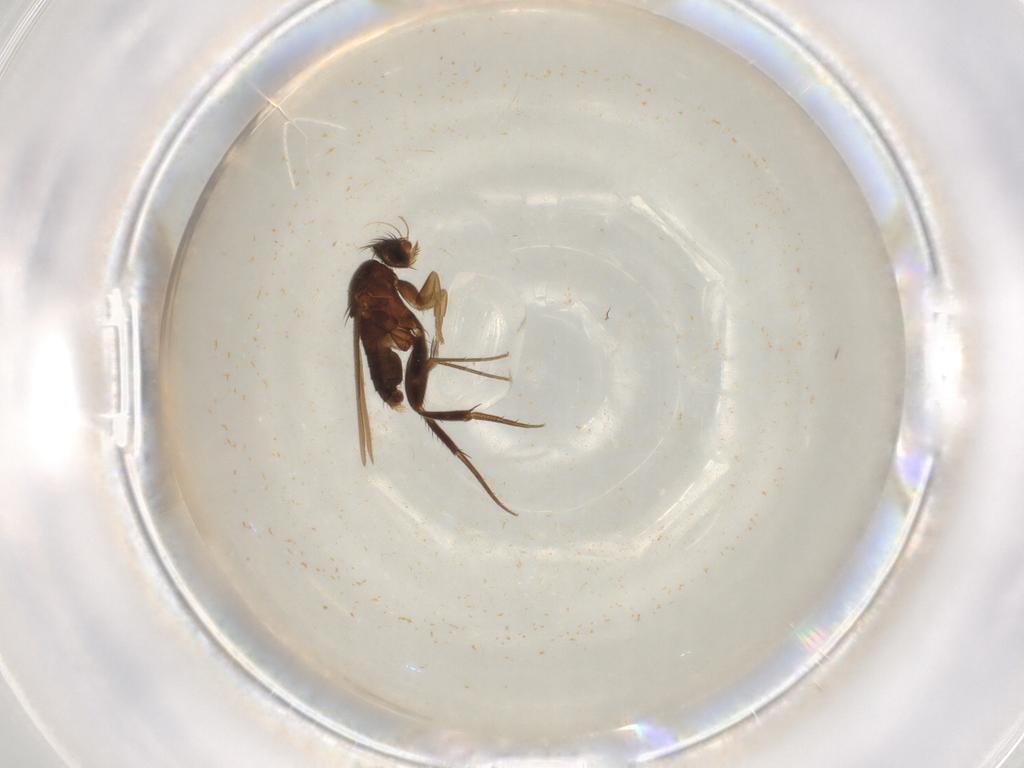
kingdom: Animalia
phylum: Arthropoda
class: Insecta
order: Diptera
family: Phoridae
